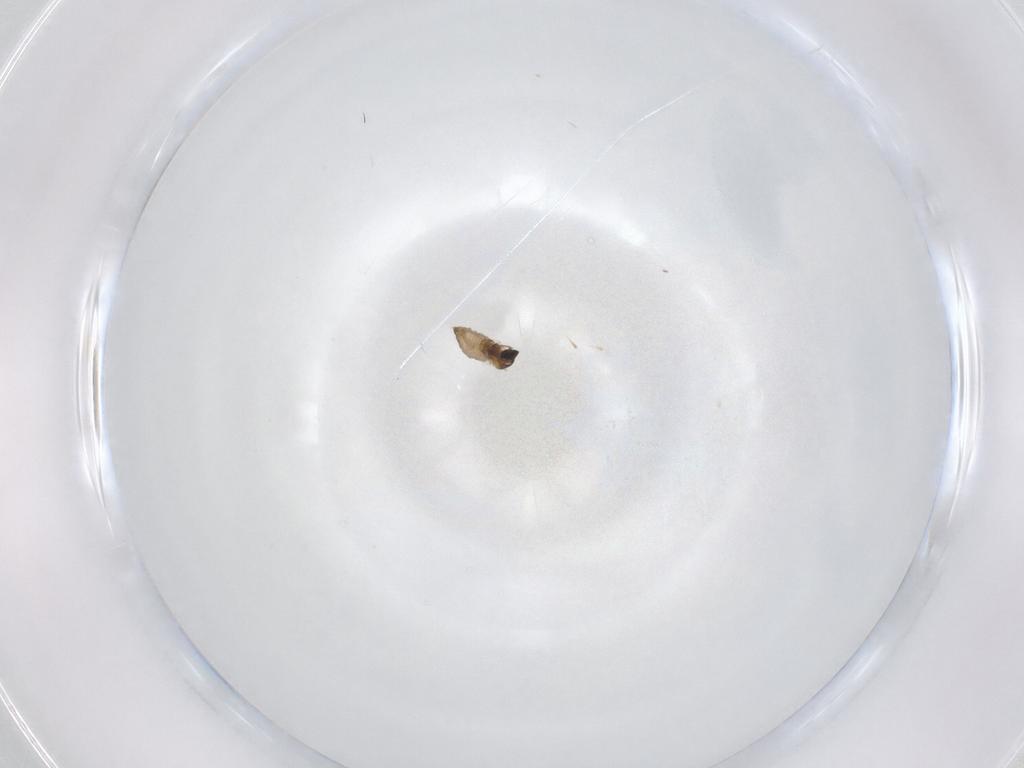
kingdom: Animalia
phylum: Arthropoda
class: Insecta
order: Diptera
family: Cecidomyiidae
